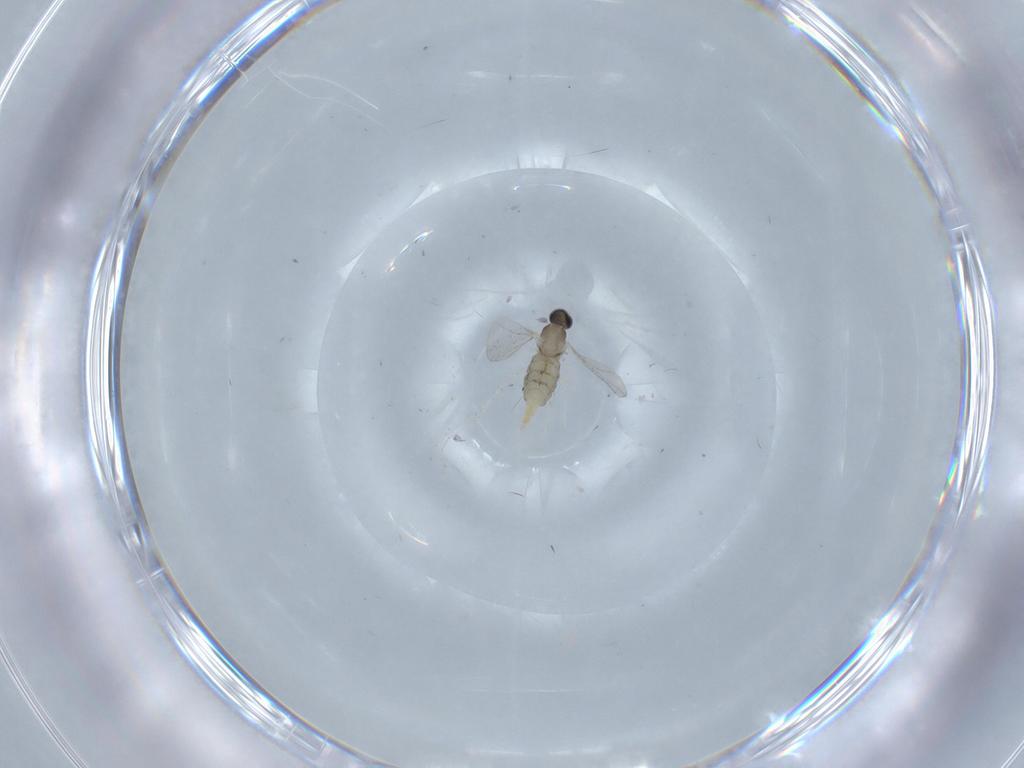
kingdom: Animalia
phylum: Arthropoda
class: Insecta
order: Diptera
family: Cecidomyiidae
